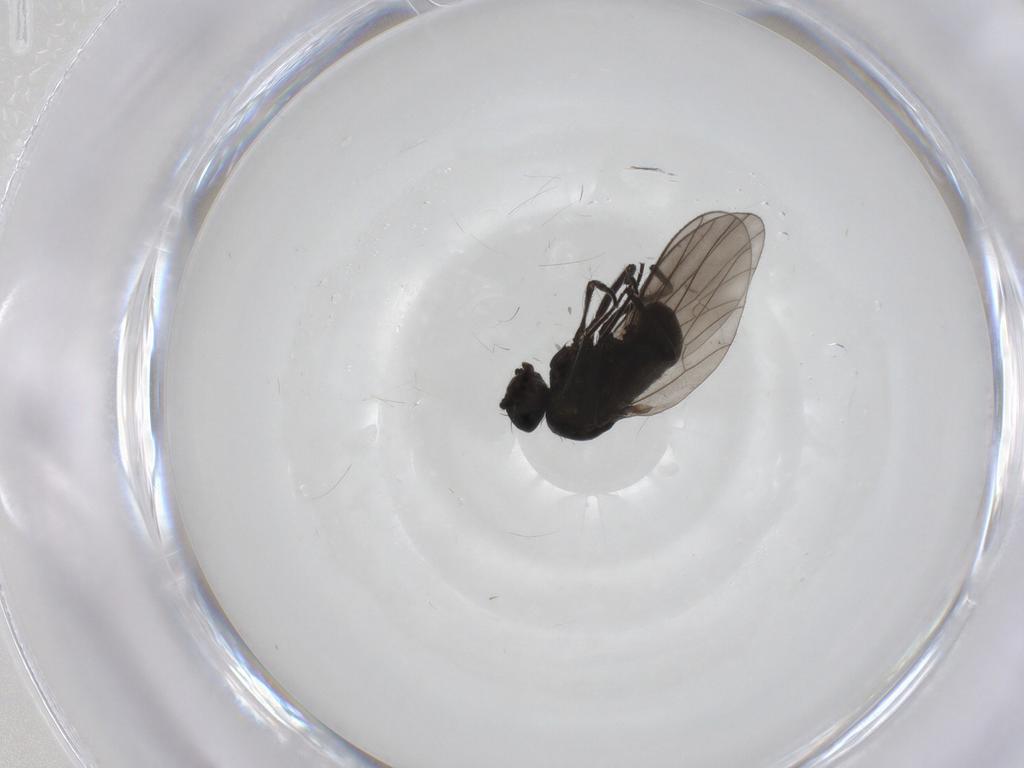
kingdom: Animalia
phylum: Arthropoda
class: Insecta
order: Diptera
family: Dolichopodidae
